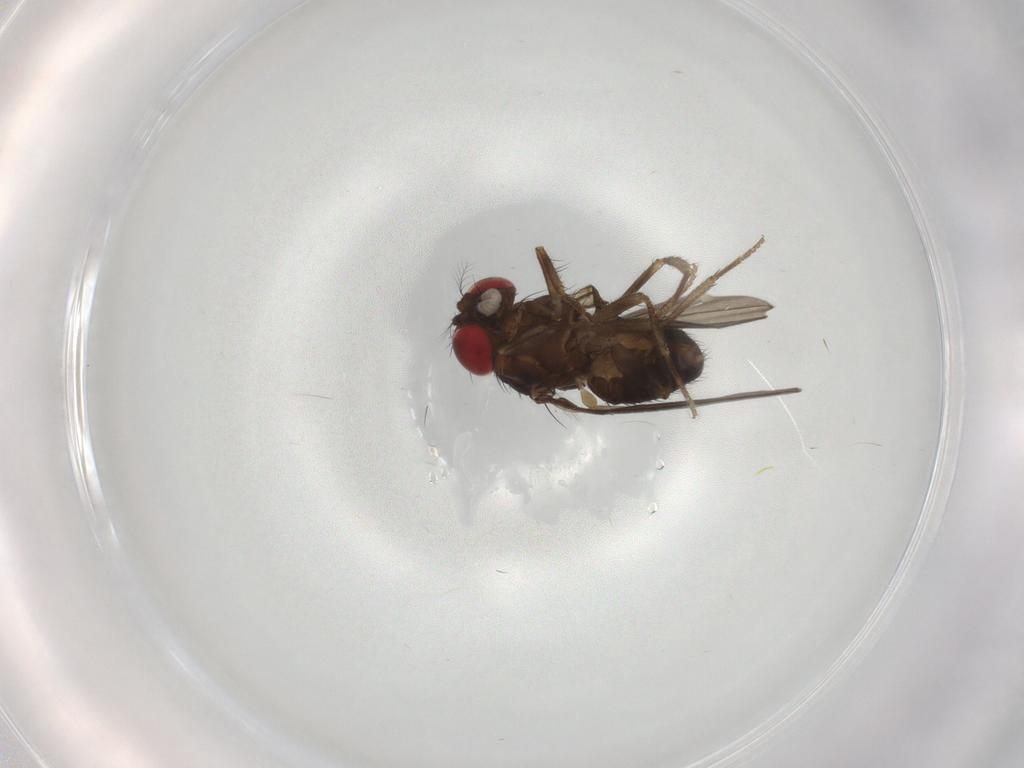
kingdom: Animalia
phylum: Arthropoda
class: Insecta
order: Diptera
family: Drosophilidae
